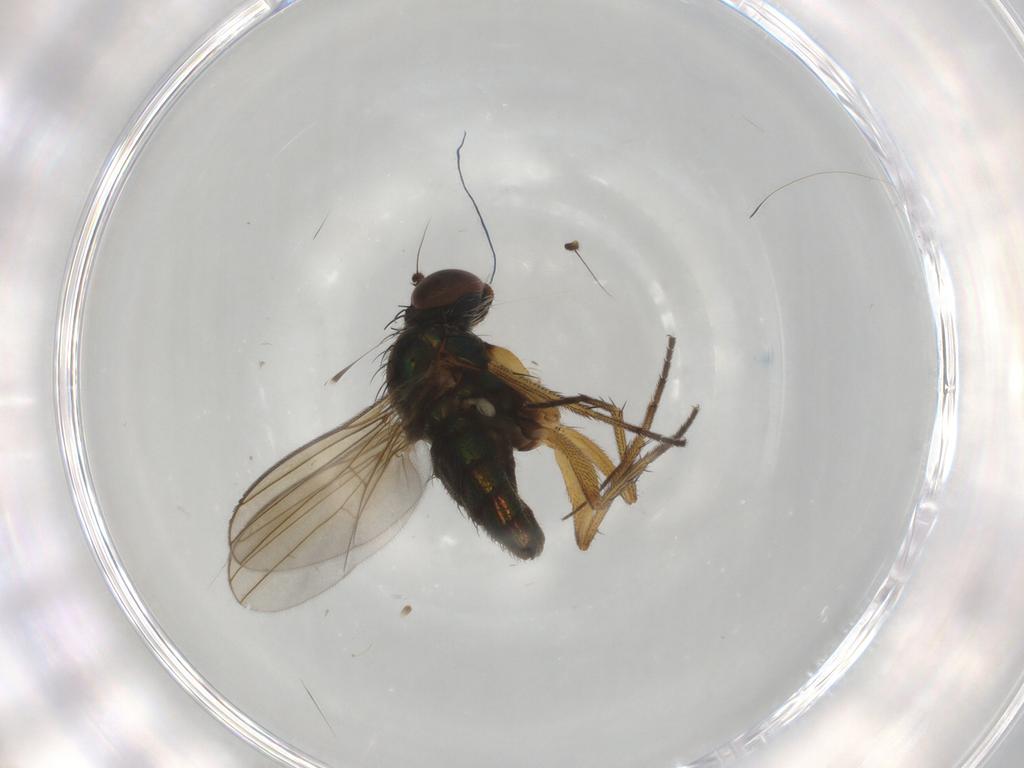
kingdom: Animalia
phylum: Arthropoda
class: Insecta
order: Diptera
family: Dolichopodidae
